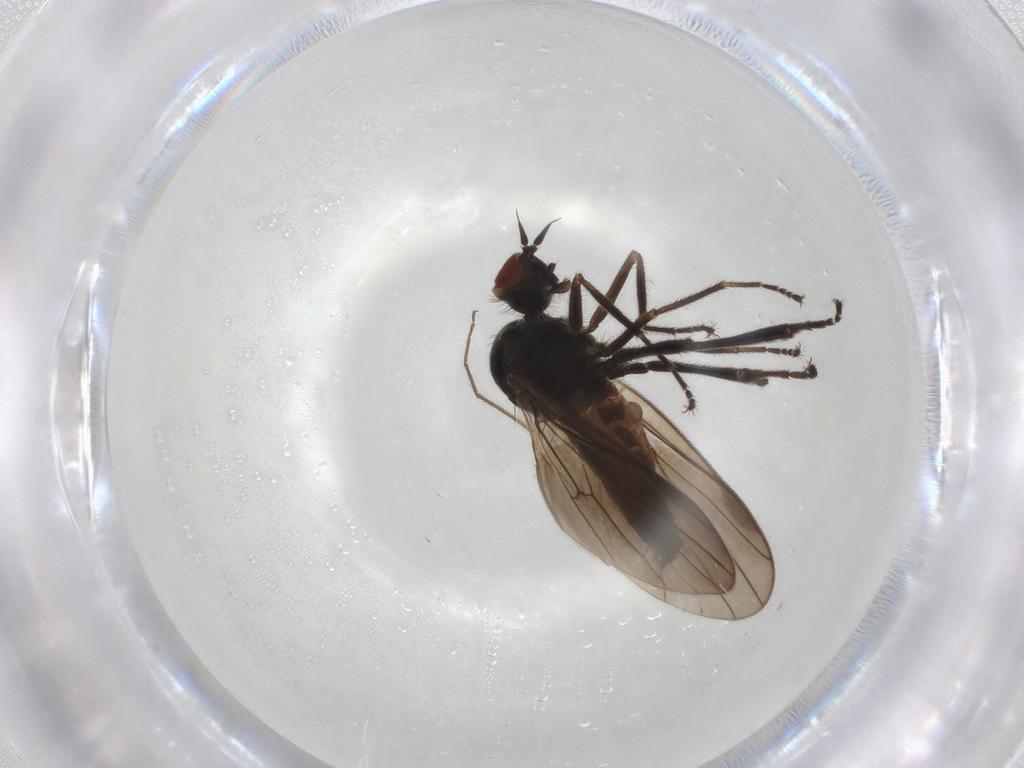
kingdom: Animalia
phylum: Arthropoda
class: Insecta
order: Diptera
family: Hybotidae
